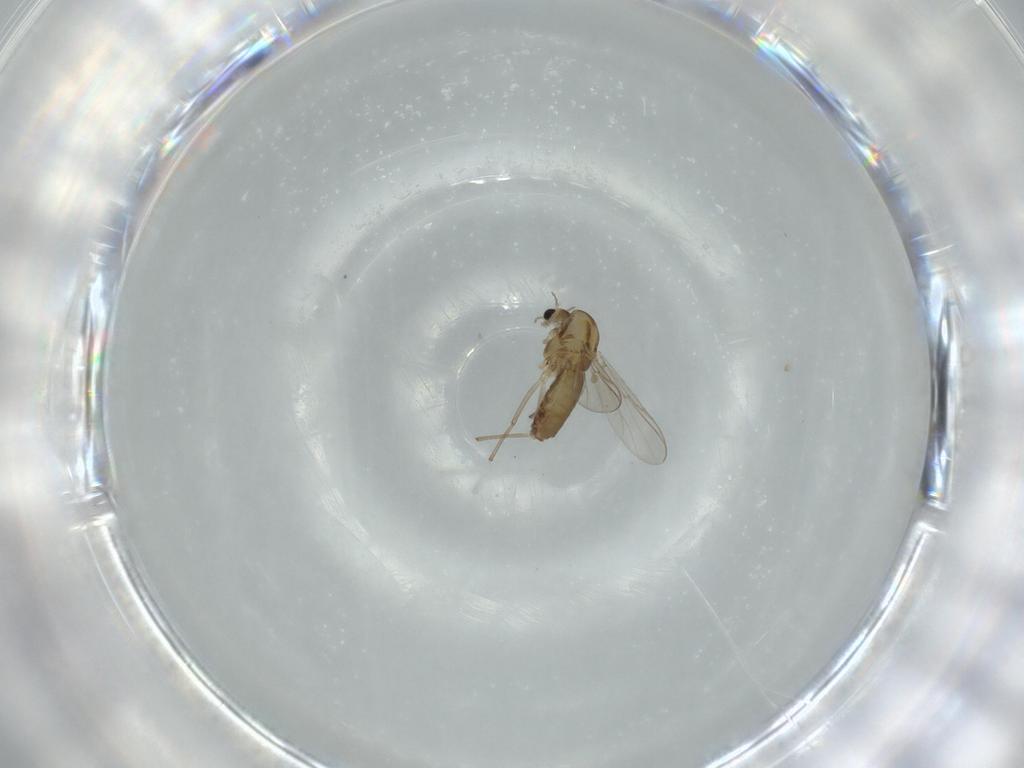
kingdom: Animalia
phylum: Arthropoda
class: Insecta
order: Diptera
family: Chironomidae
